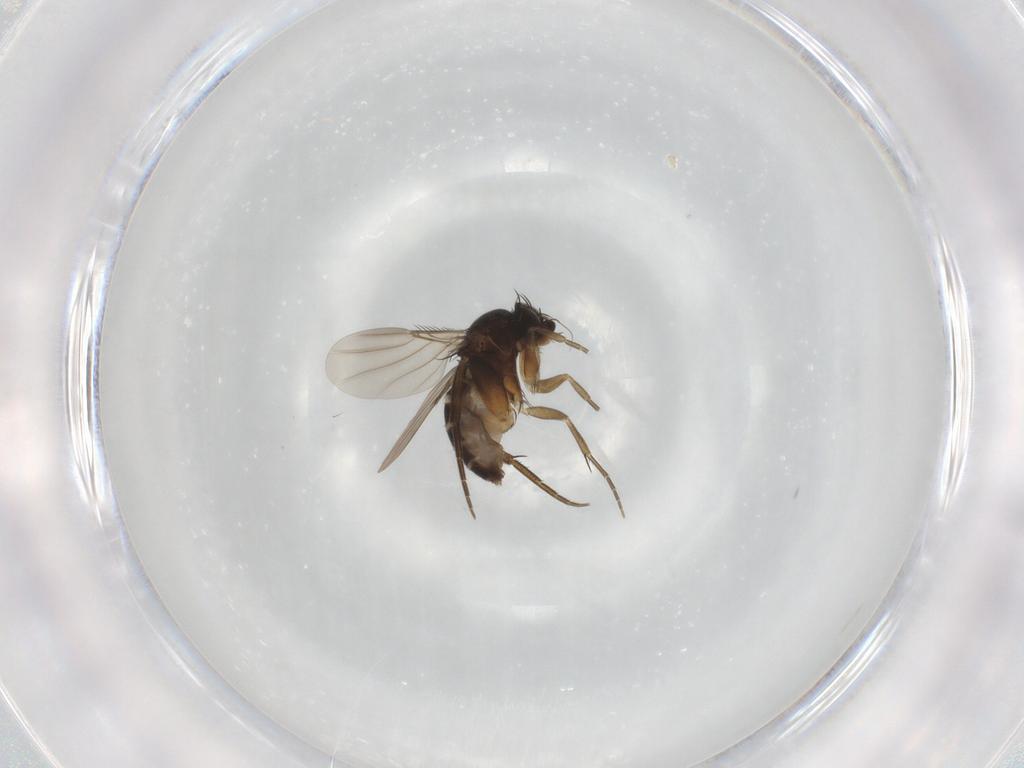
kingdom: Animalia
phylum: Arthropoda
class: Insecta
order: Diptera
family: Phoridae
